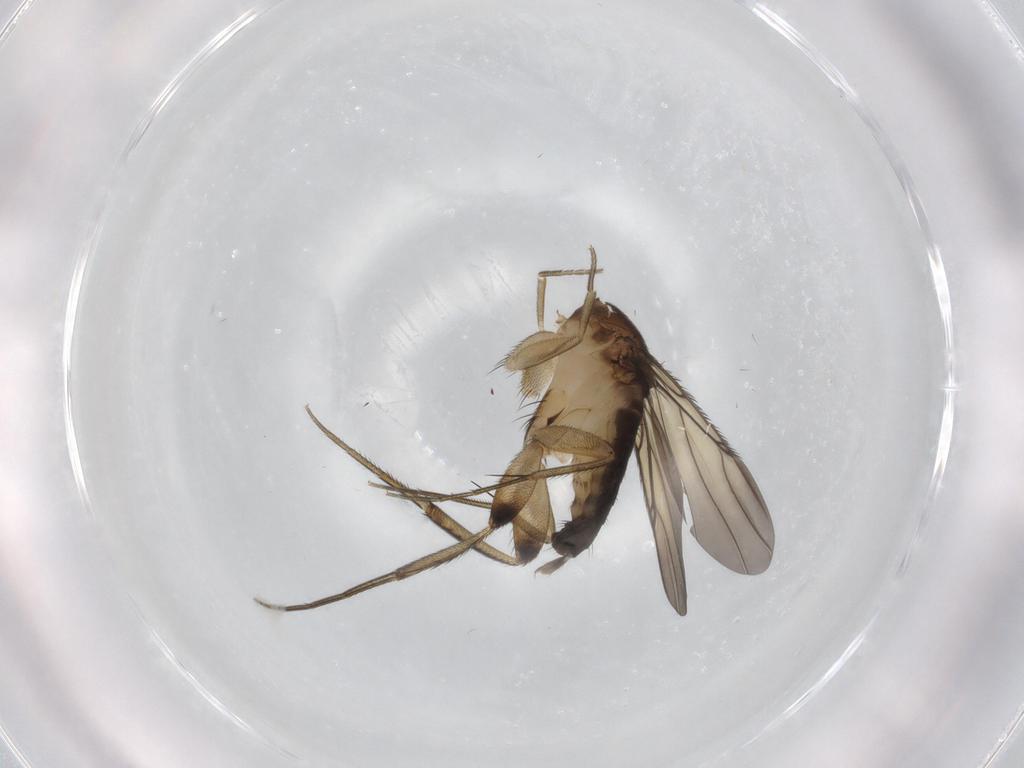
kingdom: Animalia
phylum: Arthropoda
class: Insecta
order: Diptera
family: Phoridae
